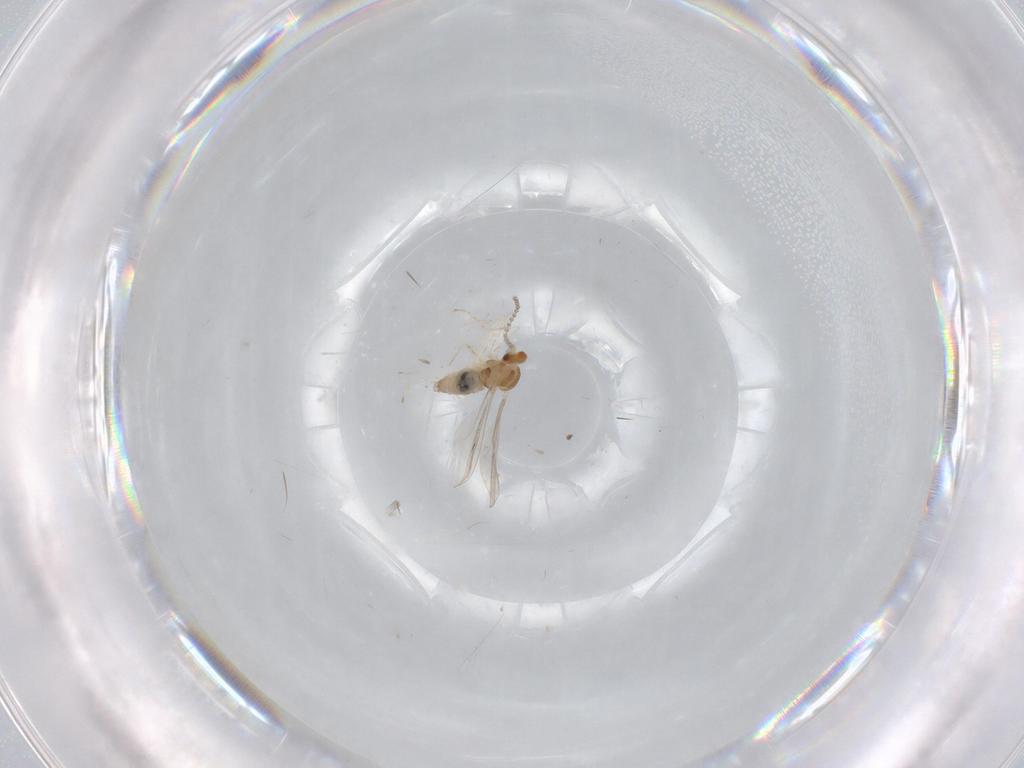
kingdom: Animalia
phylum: Arthropoda
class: Insecta
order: Diptera
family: Cecidomyiidae
